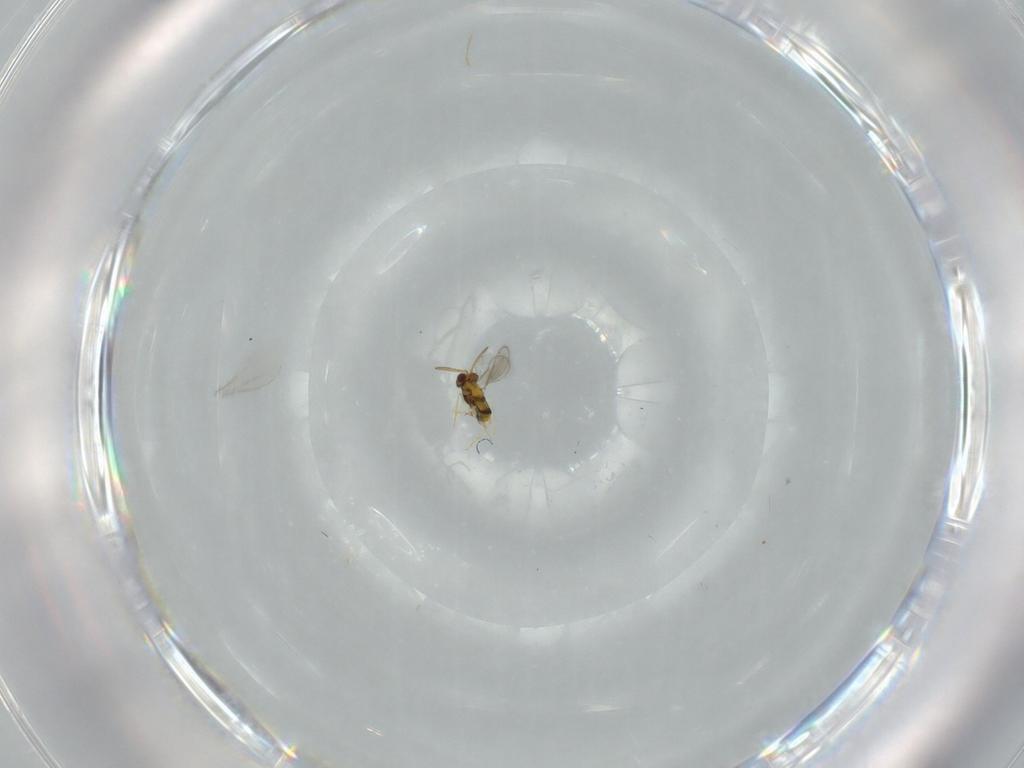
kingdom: Animalia
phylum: Arthropoda
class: Insecta
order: Hymenoptera
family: Aphelinidae
